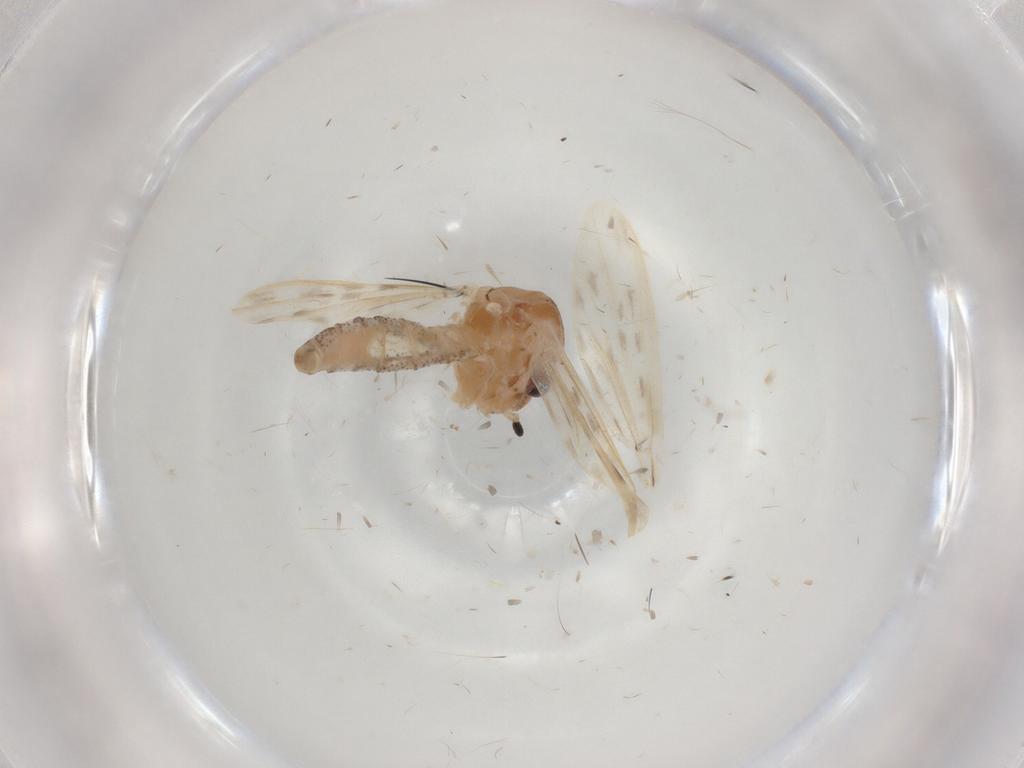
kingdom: Animalia
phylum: Arthropoda
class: Insecta
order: Diptera
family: Chaoboridae
